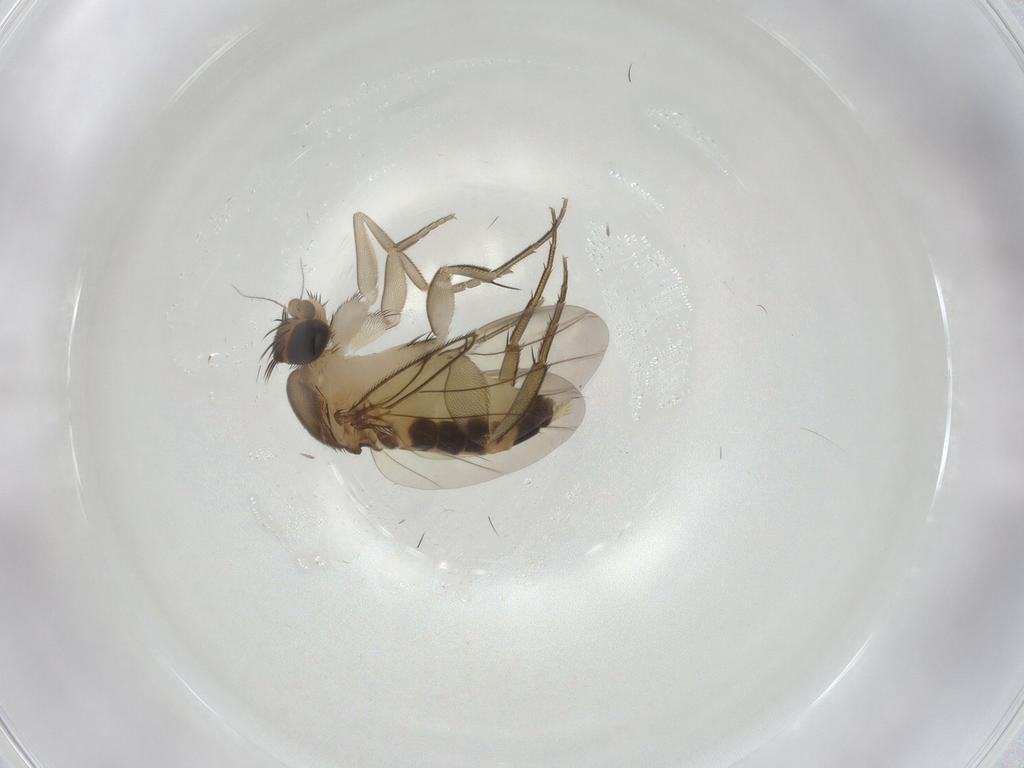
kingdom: Animalia
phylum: Arthropoda
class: Insecta
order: Diptera
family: Phoridae
